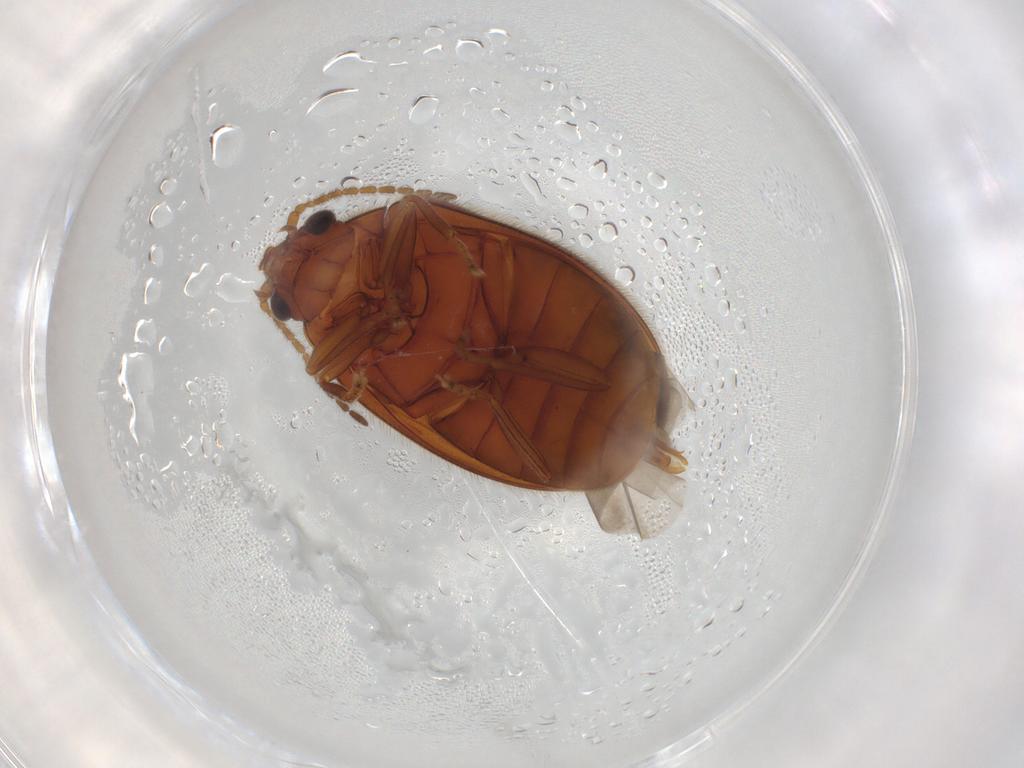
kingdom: Animalia
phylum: Arthropoda
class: Insecta
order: Coleoptera
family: Scirtidae
